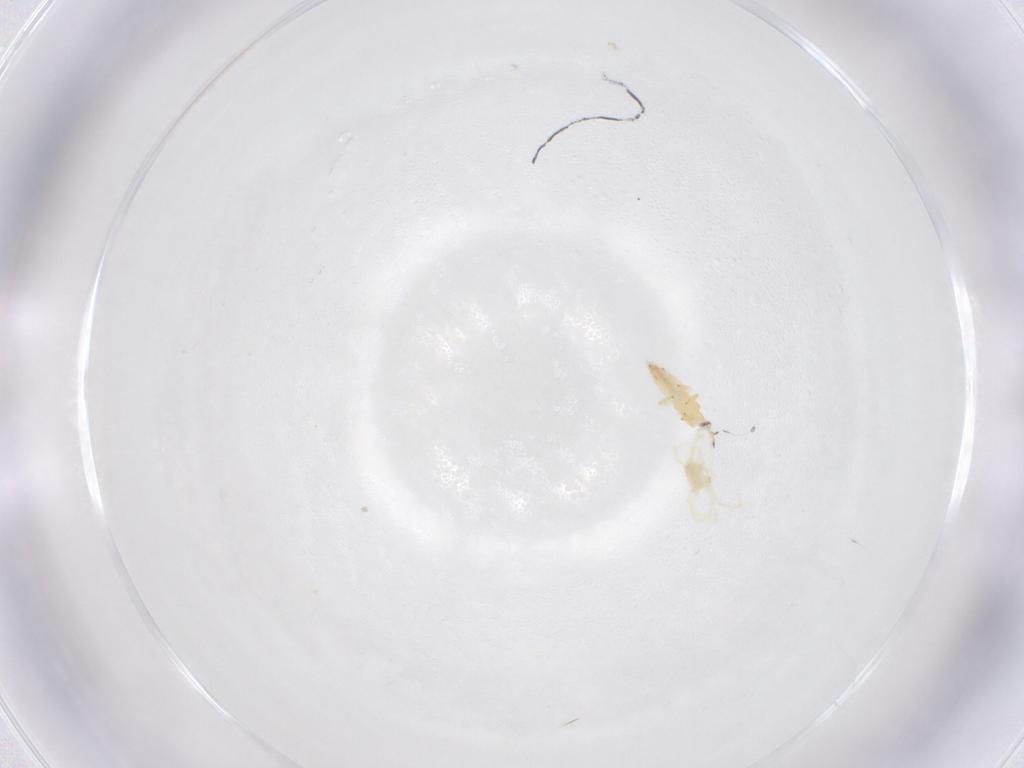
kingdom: Animalia
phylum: Arthropoda
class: Insecta
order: Thysanoptera
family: Thripidae
